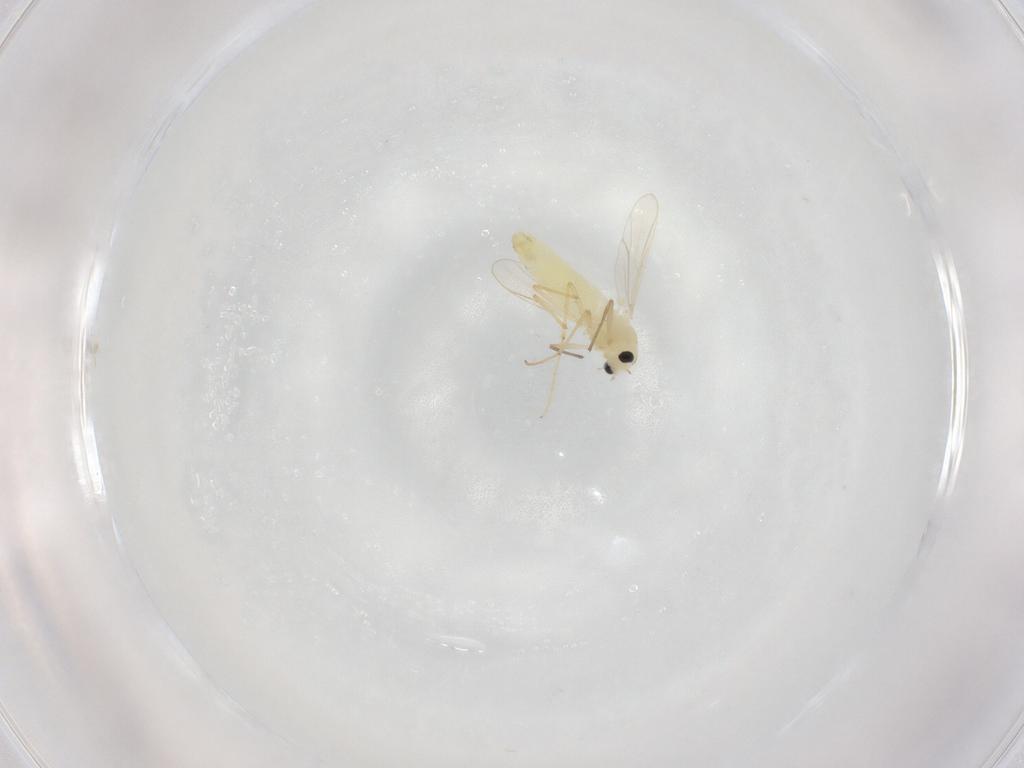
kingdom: Animalia
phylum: Arthropoda
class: Insecta
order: Diptera
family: Chironomidae
